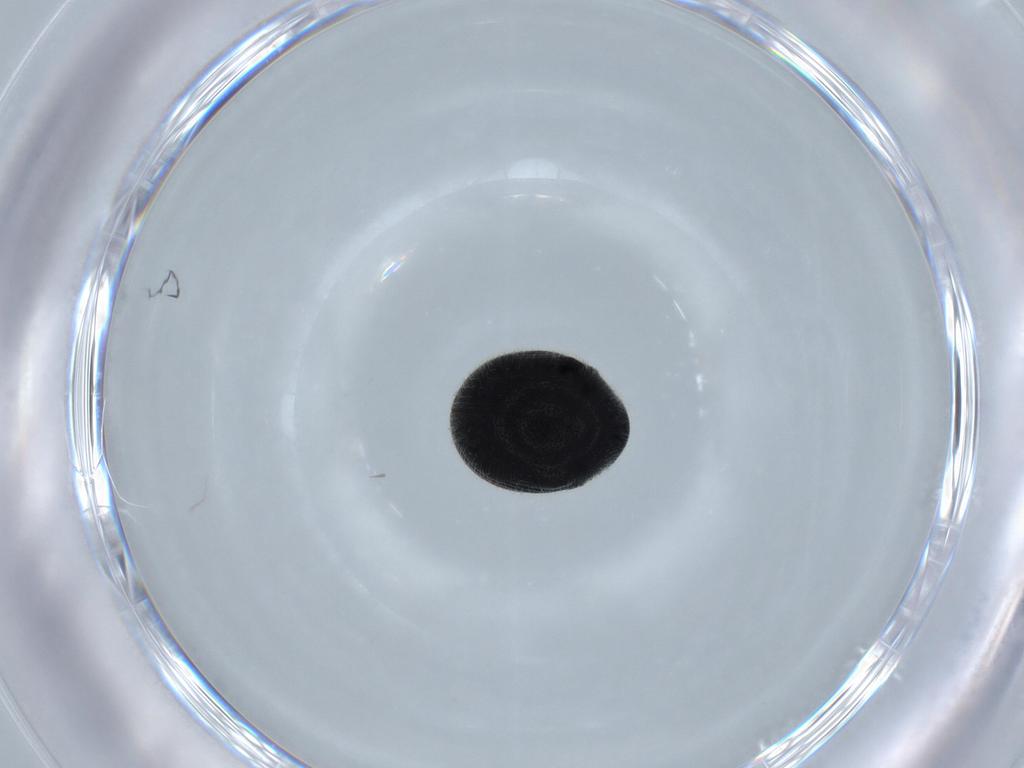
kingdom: Animalia
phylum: Arthropoda
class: Insecta
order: Coleoptera
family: Ptinidae
